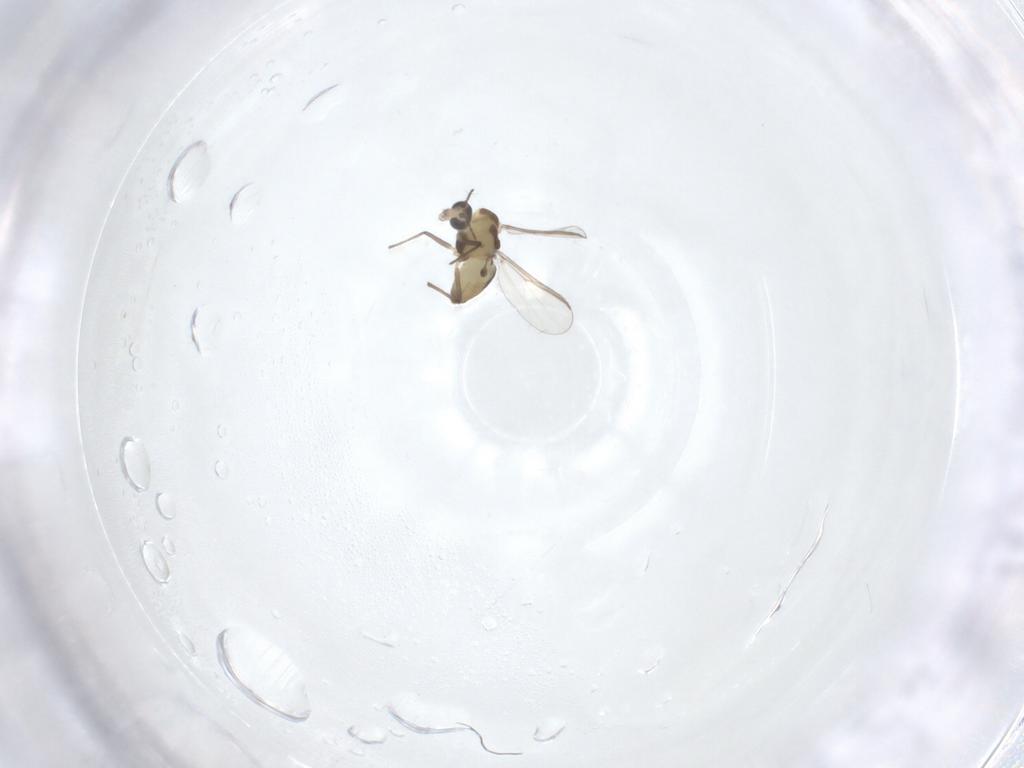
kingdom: Animalia
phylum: Arthropoda
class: Insecta
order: Diptera
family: Chironomidae
